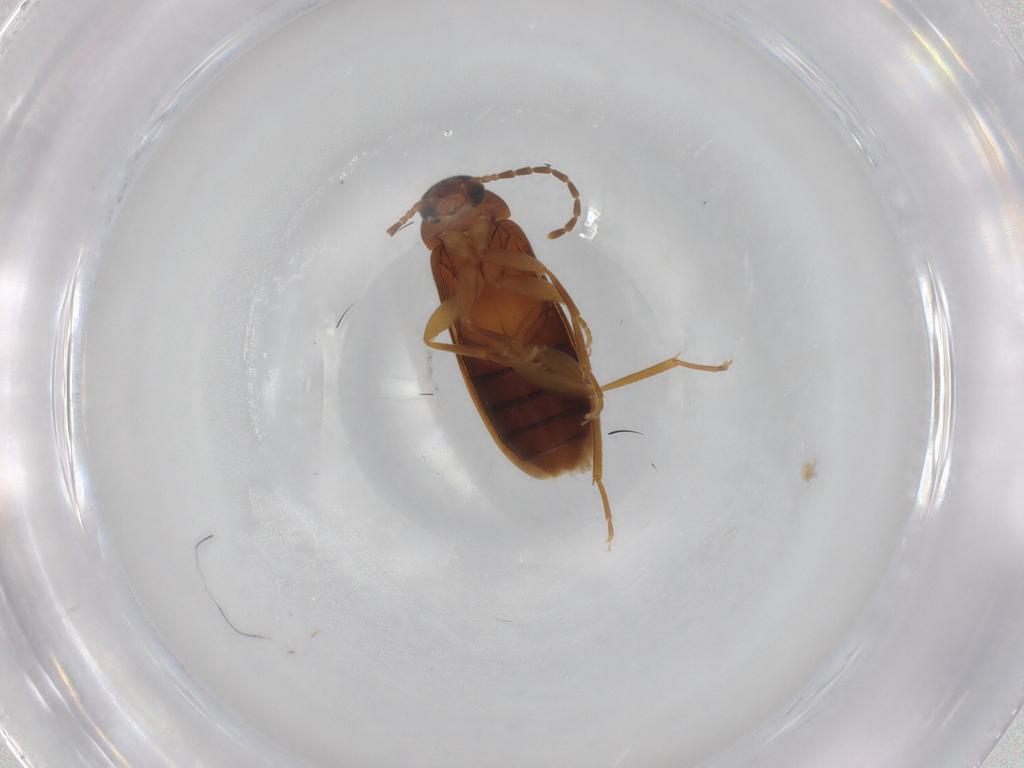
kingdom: Animalia
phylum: Arthropoda
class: Insecta
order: Coleoptera
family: Scraptiidae
